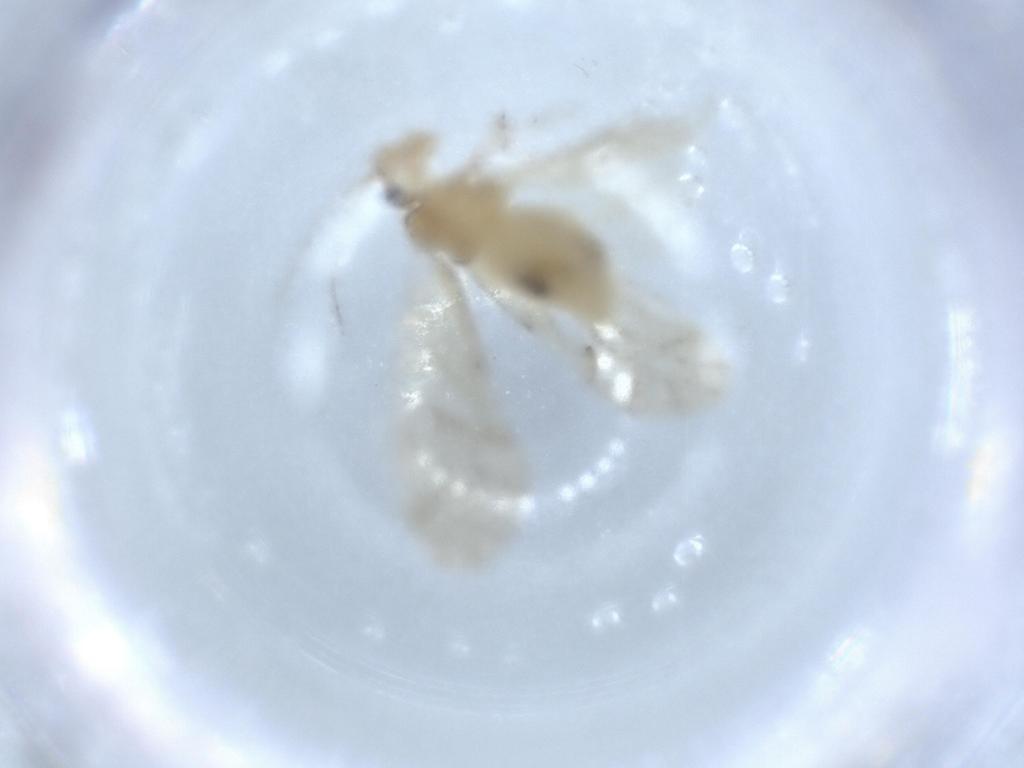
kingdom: Animalia
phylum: Arthropoda
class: Insecta
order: Psocodea
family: Caeciliusidae
